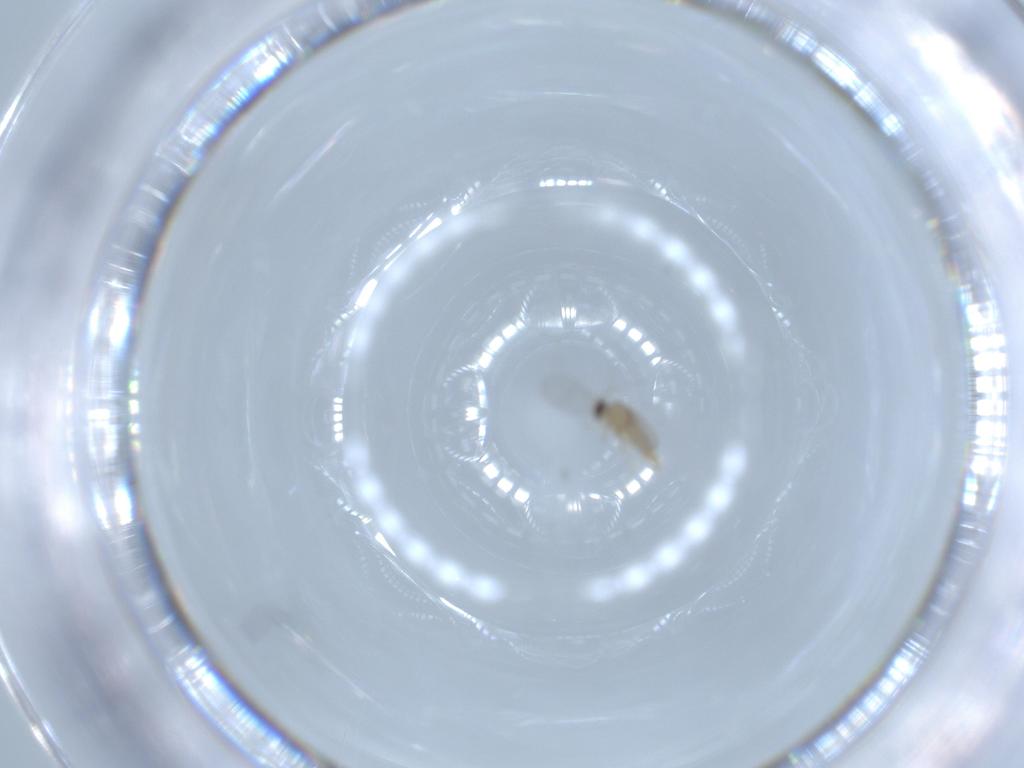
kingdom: Animalia
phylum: Arthropoda
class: Insecta
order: Diptera
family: Cecidomyiidae
